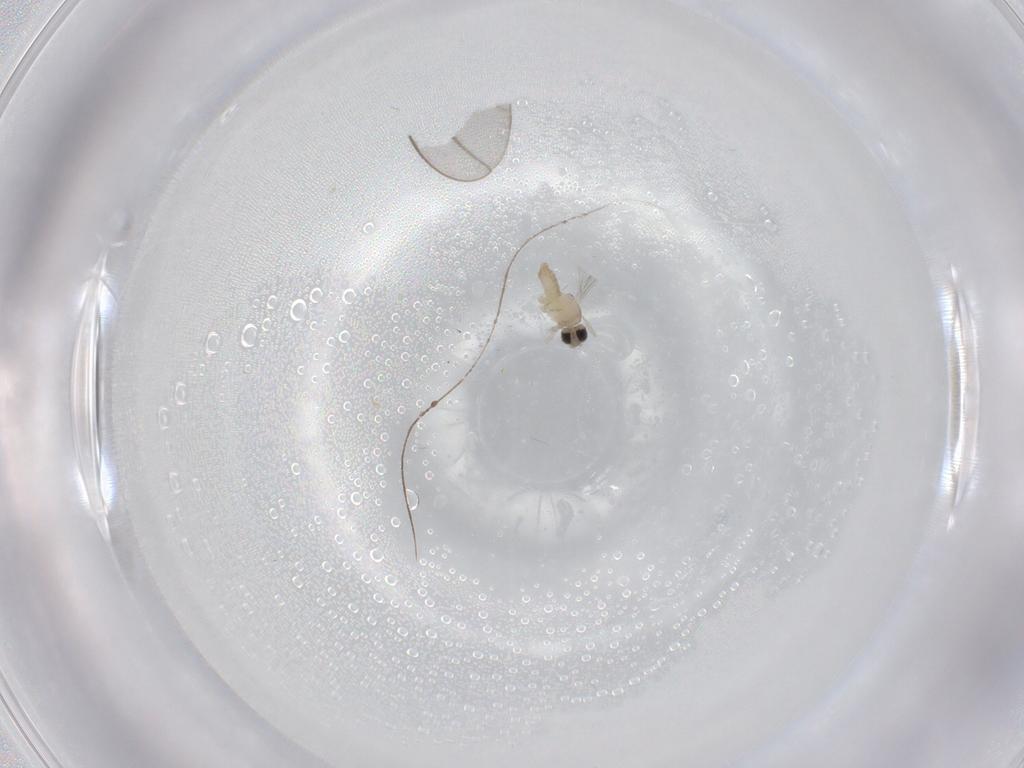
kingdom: Animalia
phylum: Arthropoda
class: Insecta
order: Diptera
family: Cecidomyiidae
